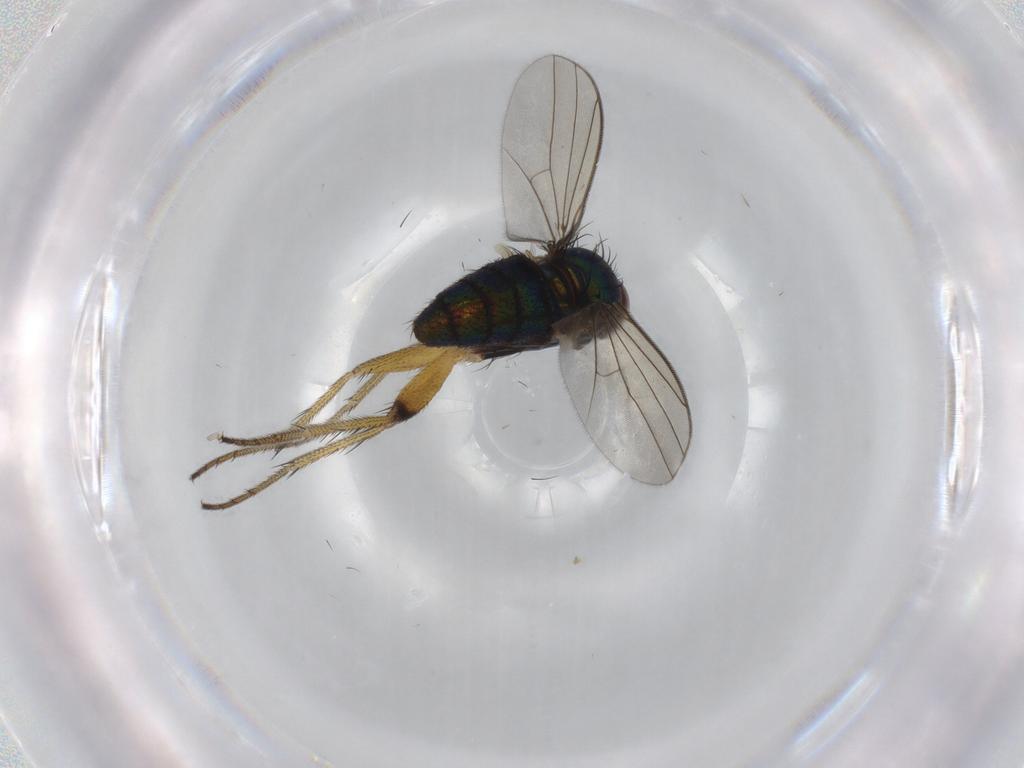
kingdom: Animalia
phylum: Arthropoda
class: Insecta
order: Diptera
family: Dolichopodidae
